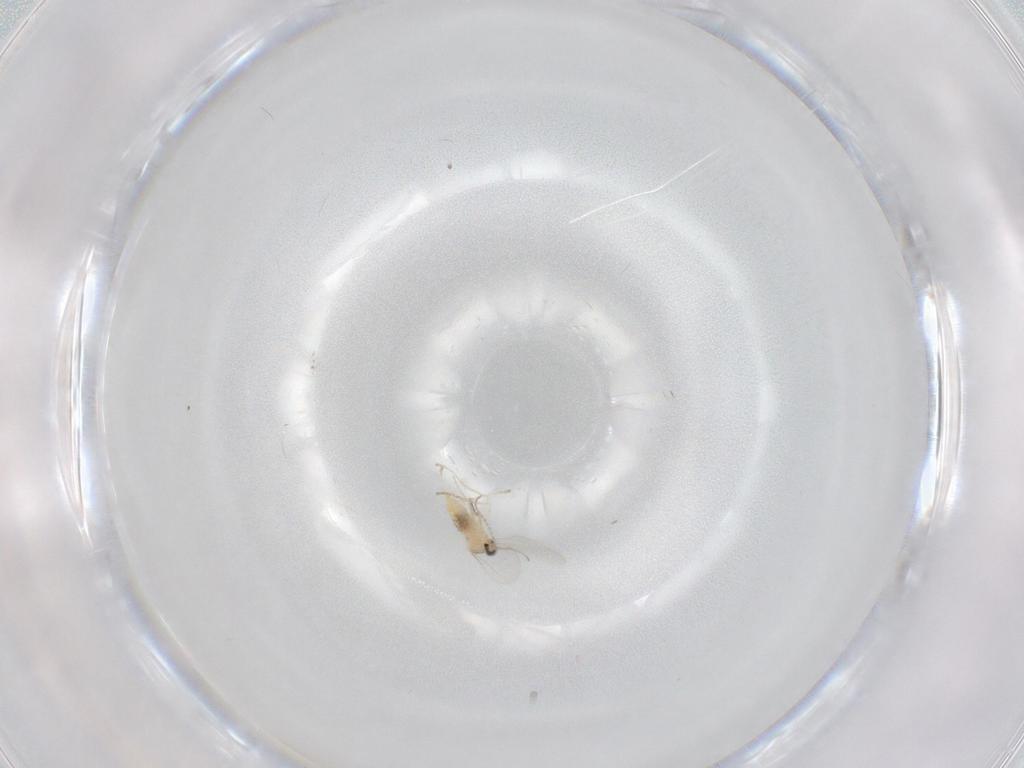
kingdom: Animalia
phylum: Arthropoda
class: Insecta
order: Diptera
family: Cecidomyiidae
